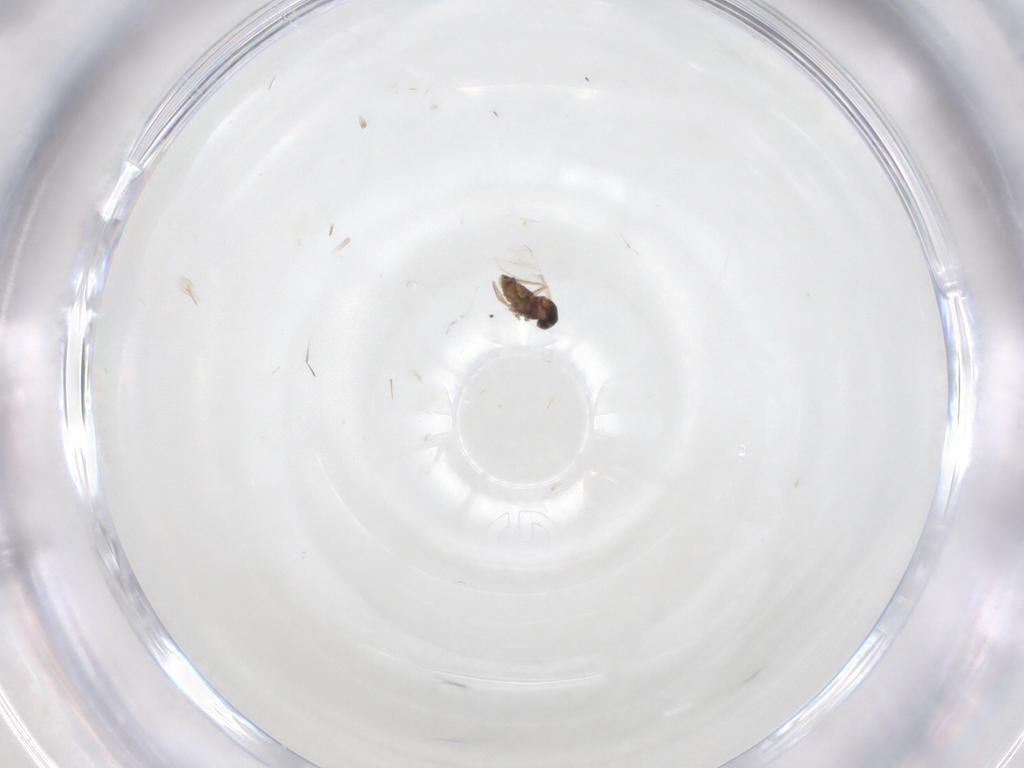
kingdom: Animalia
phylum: Arthropoda
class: Insecta
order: Diptera
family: Cecidomyiidae
